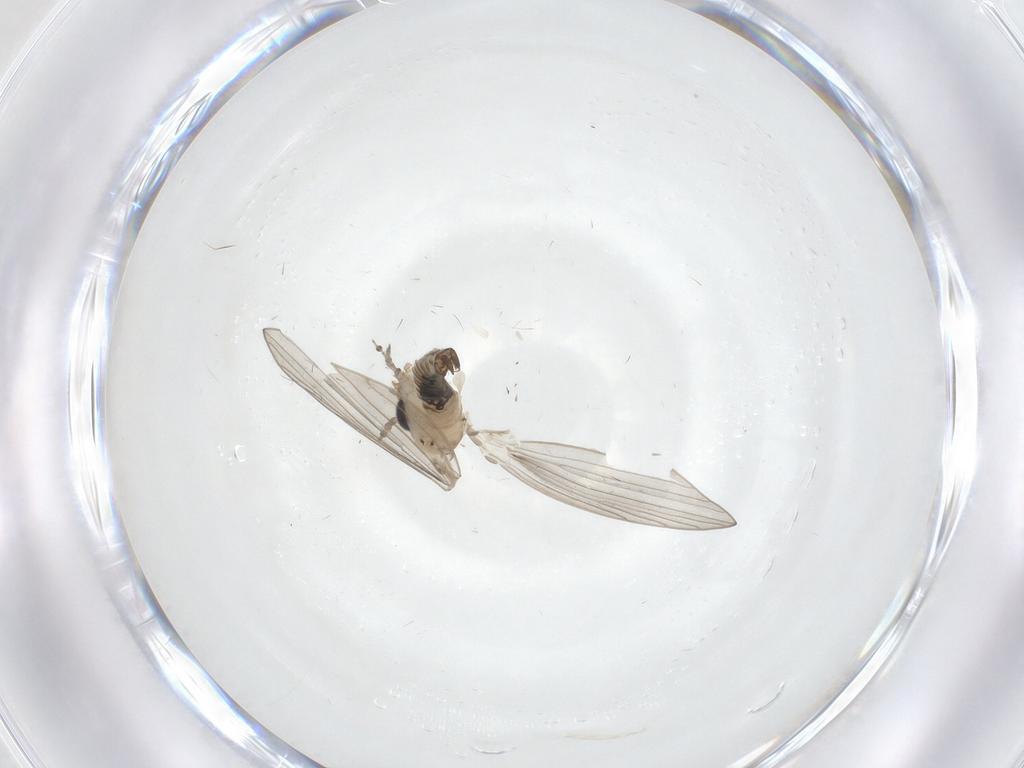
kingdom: Animalia
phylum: Arthropoda
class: Insecta
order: Diptera
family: Psychodidae
